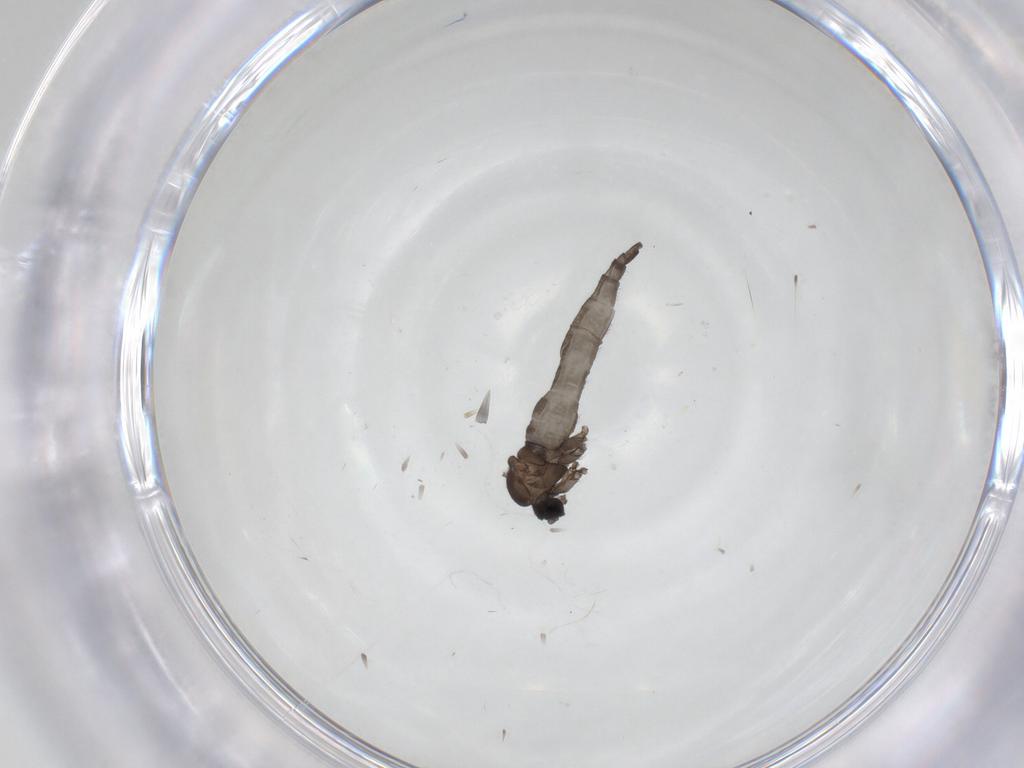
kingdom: Animalia
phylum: Arthropoda
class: Insecta
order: Diptera
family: Sciaridae
